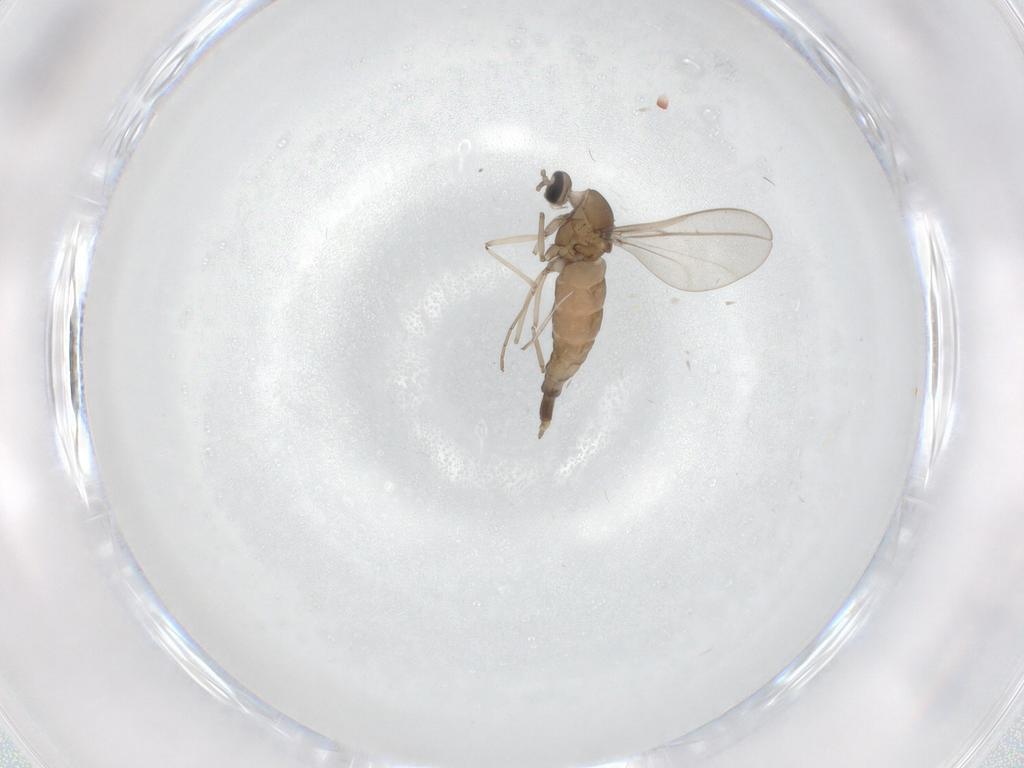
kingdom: Animalia
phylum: Arthropoda
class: Insecta
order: Diptera
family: Cecidomyiidae
